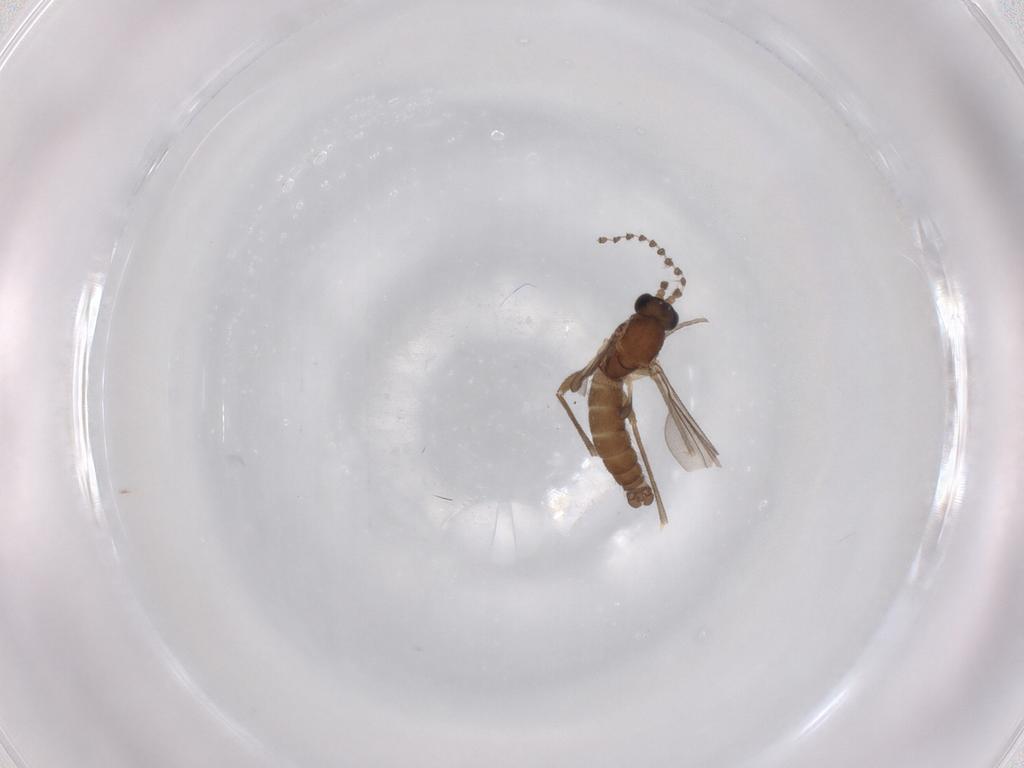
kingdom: Animalia
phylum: Arthropoda
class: Insecta
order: Diptera
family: Sciaridae
